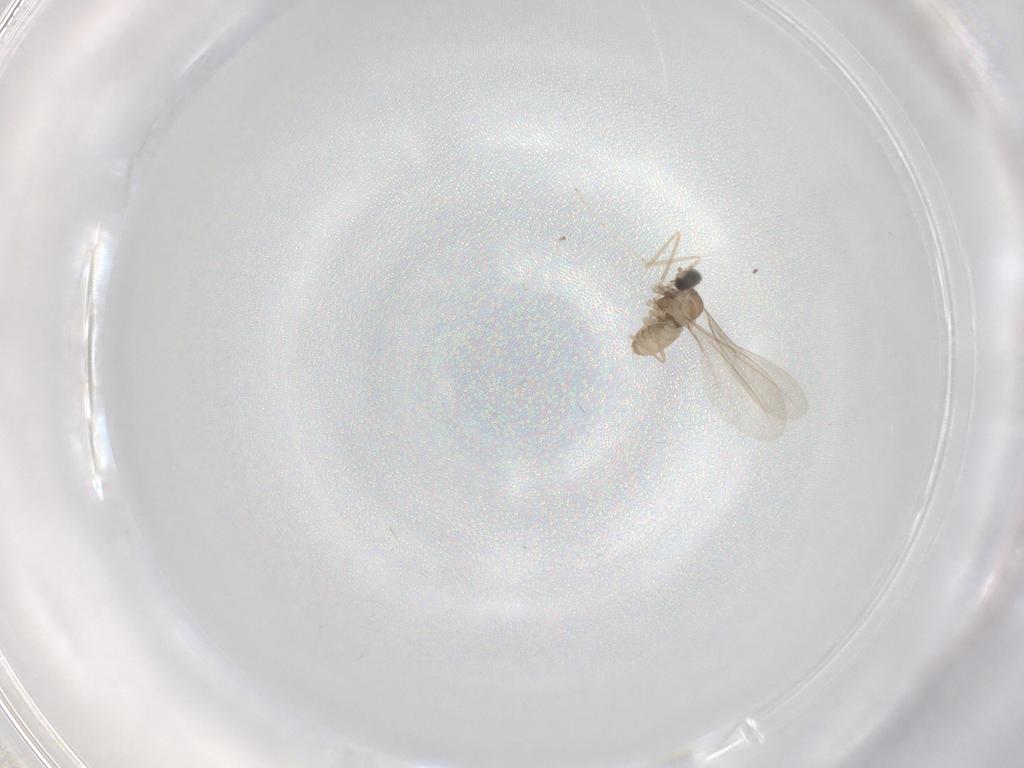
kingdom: Animalia
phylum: Arthropoda
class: Insecta
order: Diptera
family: Cecidomyiidae
